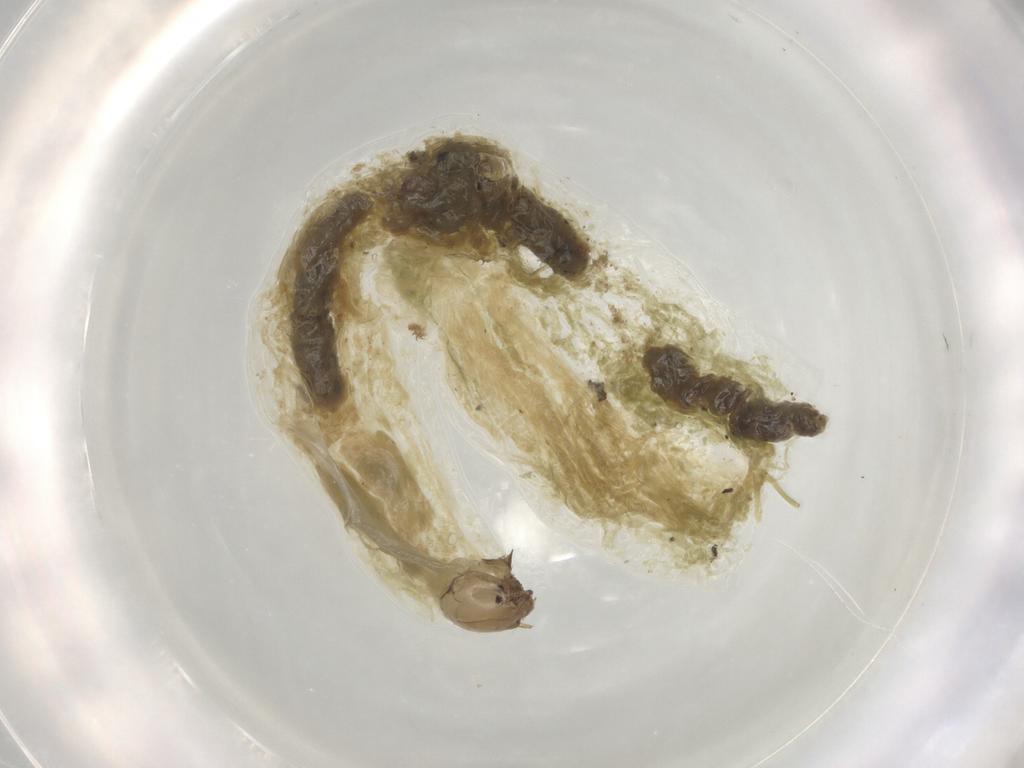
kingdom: Animalia
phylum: Arthropoda
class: Insecta
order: Diptera
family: Chironomidae
